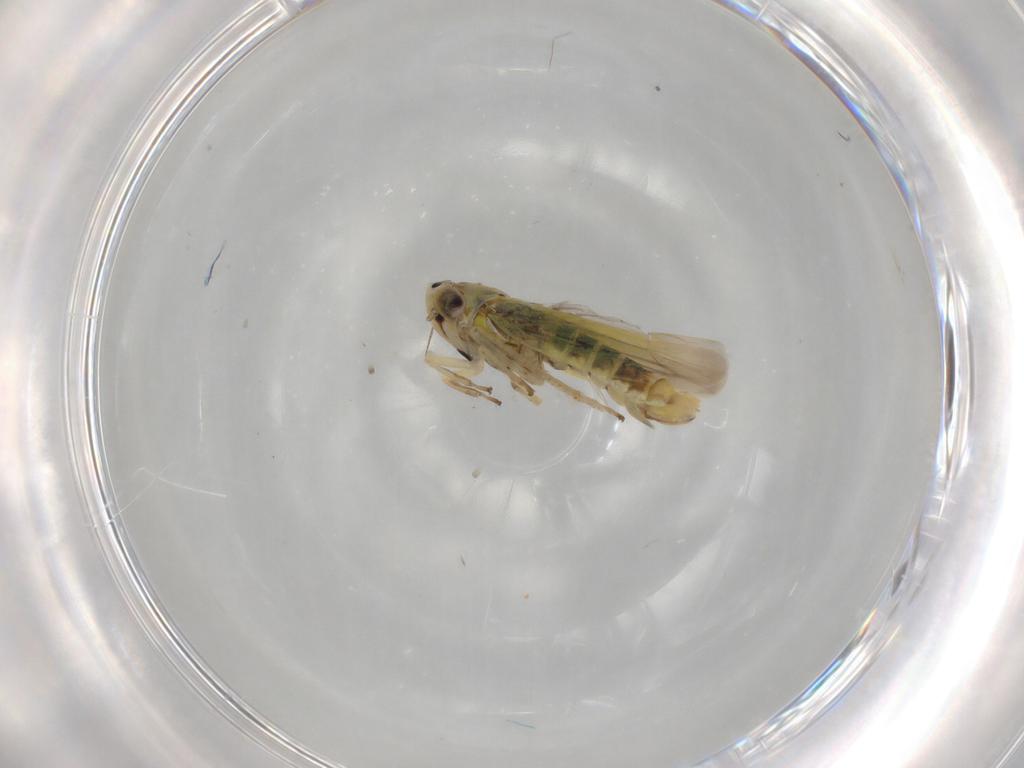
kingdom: Animalia
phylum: Arthropoda
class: Insecta
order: Hemiptera
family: Cicadellidae
